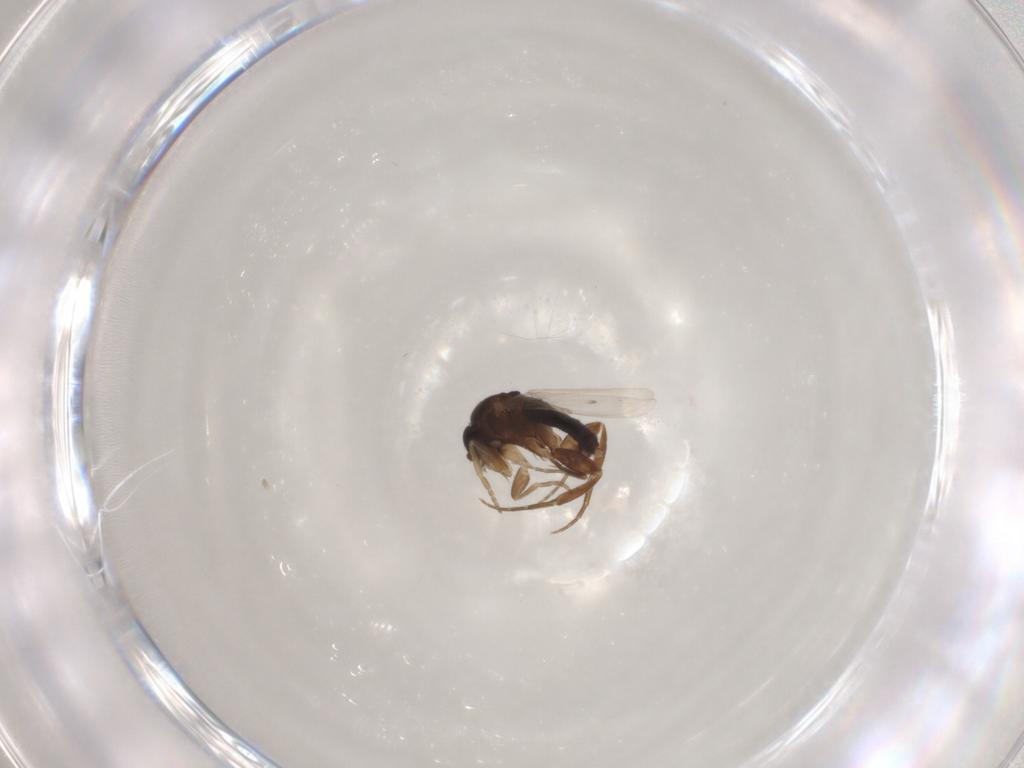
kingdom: Animalia
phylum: Arthropoda
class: Insecta
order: Diptera
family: Phoridae
